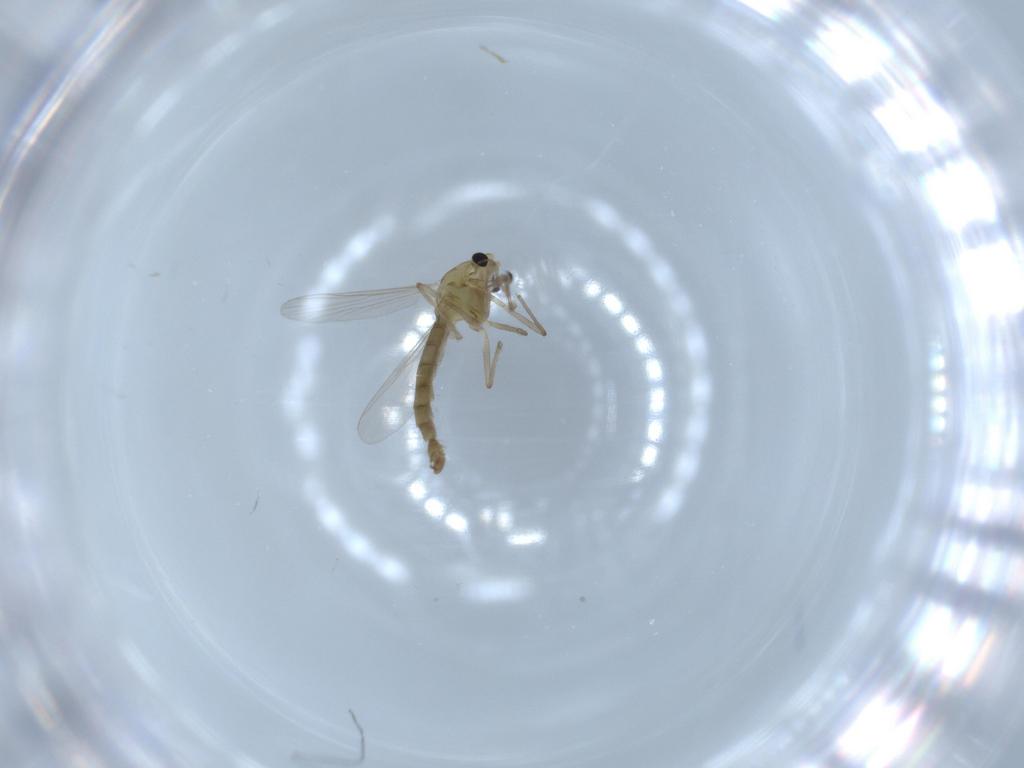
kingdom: Animalia
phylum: Arthropoda
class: Insecta
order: Diptera
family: Chironomidae
